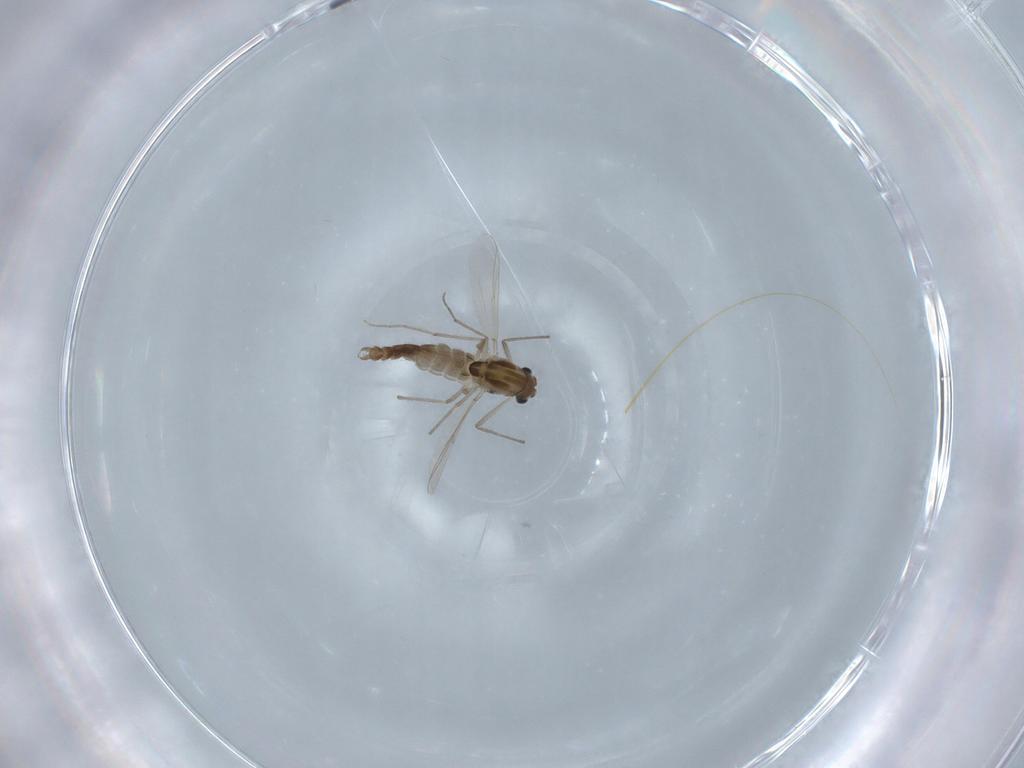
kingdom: Animalia
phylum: Arthropoda
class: Insecta
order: Diptera
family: Chironomidae
